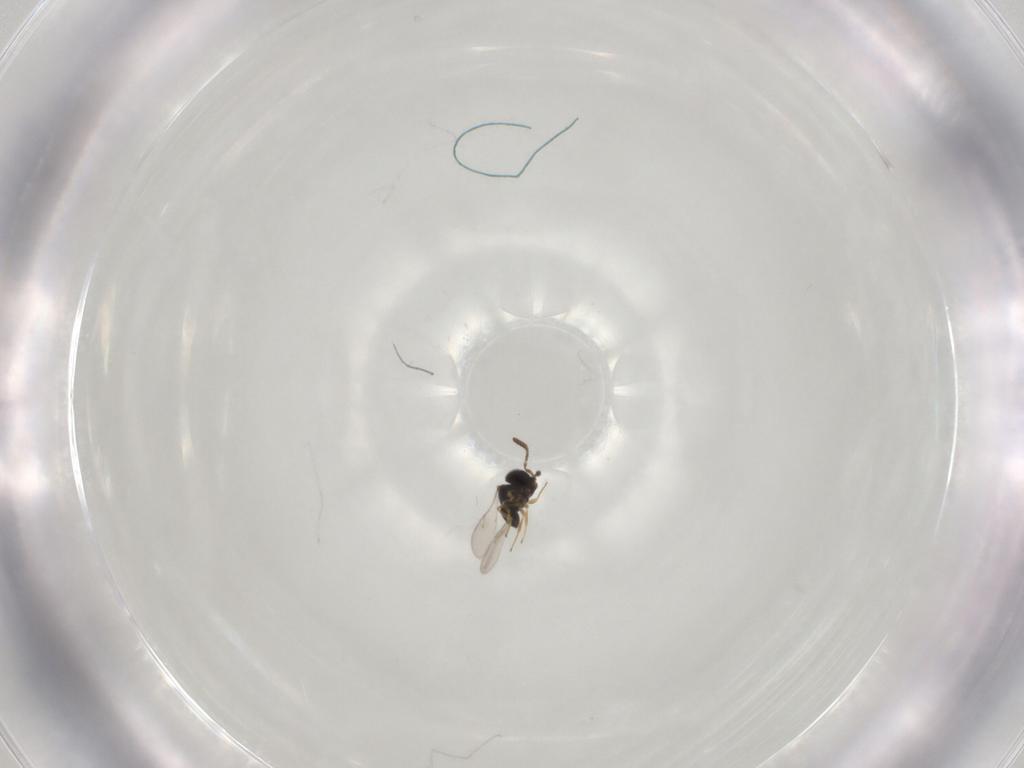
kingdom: Animalia
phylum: Arthropoda
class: Insecta
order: Hymenoptera
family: Scelionidae
